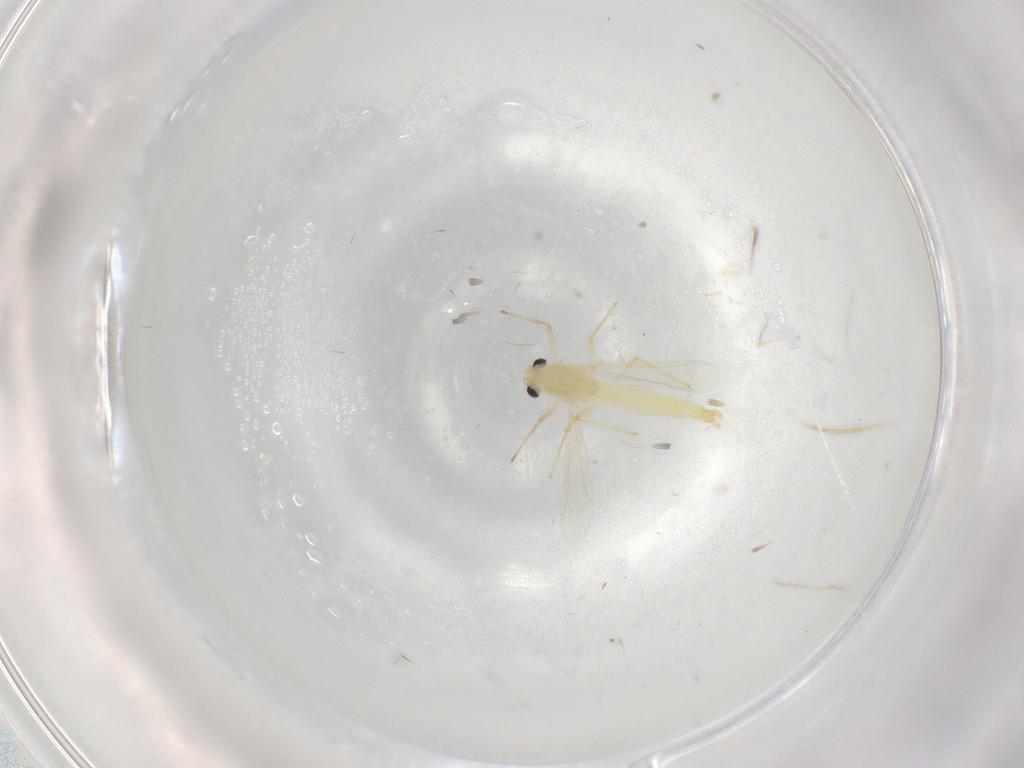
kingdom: Animalia
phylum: Arthropoda
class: Insecta
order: Diptera
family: Chironomidae
